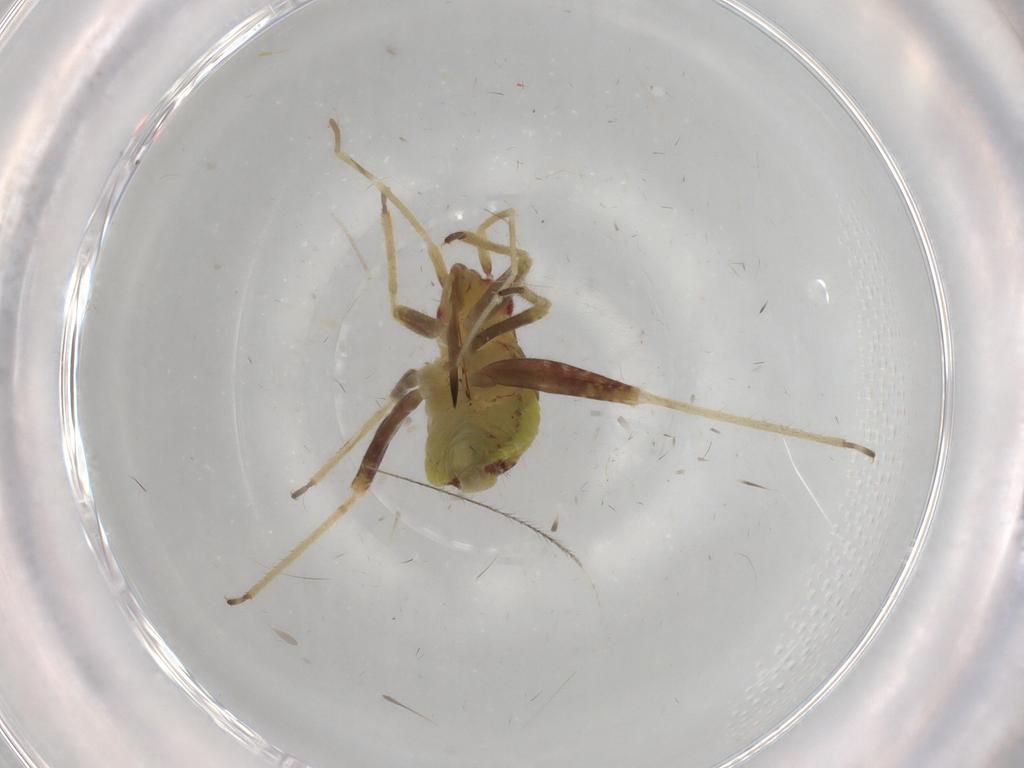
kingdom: Animalia
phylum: Arthropoda
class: Insecta
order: Hemiptera
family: Miridae
